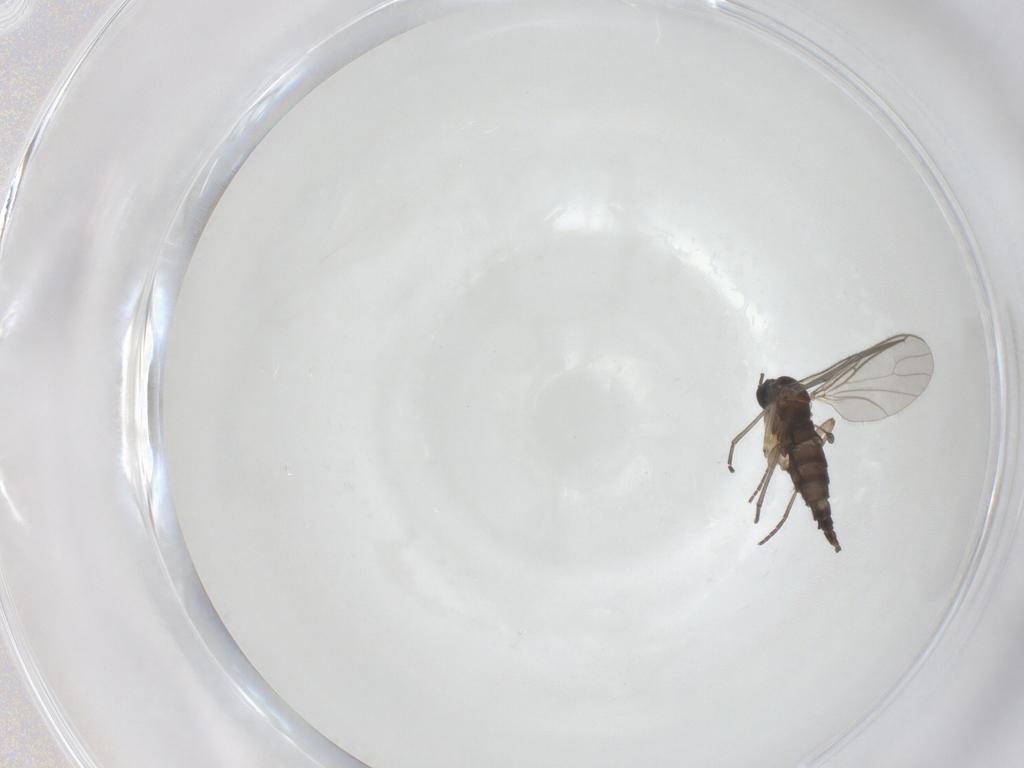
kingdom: Animalia
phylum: Arthropoda
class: Insecta
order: Diptera
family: Sciaridae
